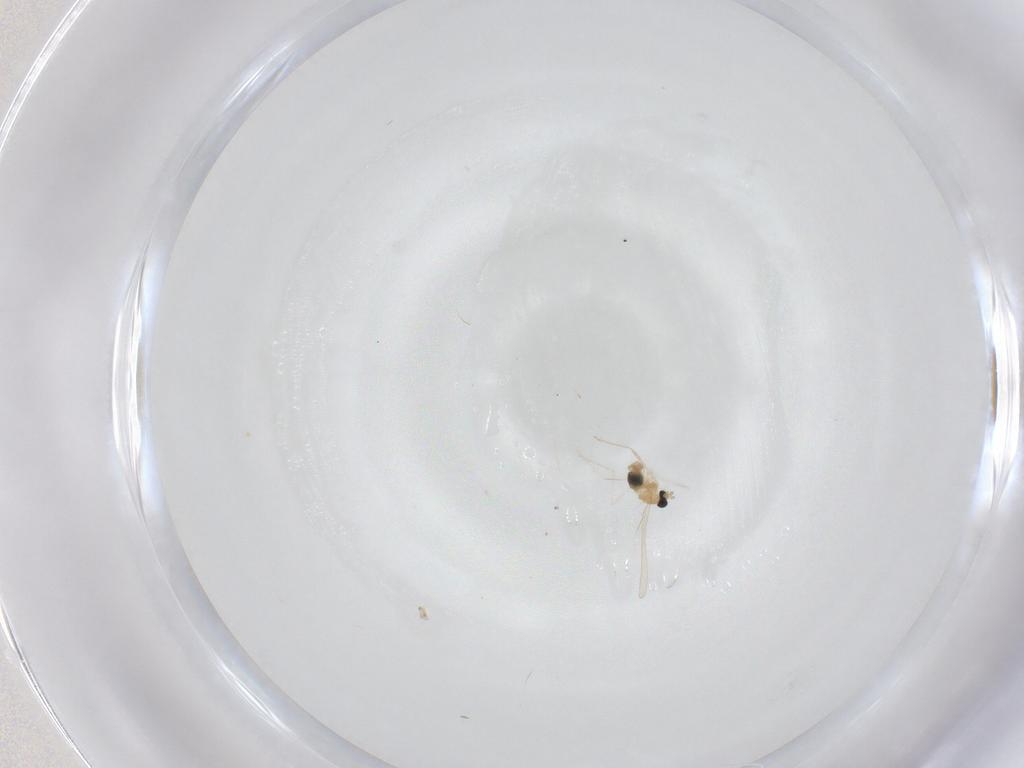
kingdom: Animalia
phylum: Arthropoda
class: Insecta
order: Diptera
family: Cecidomyiidae
